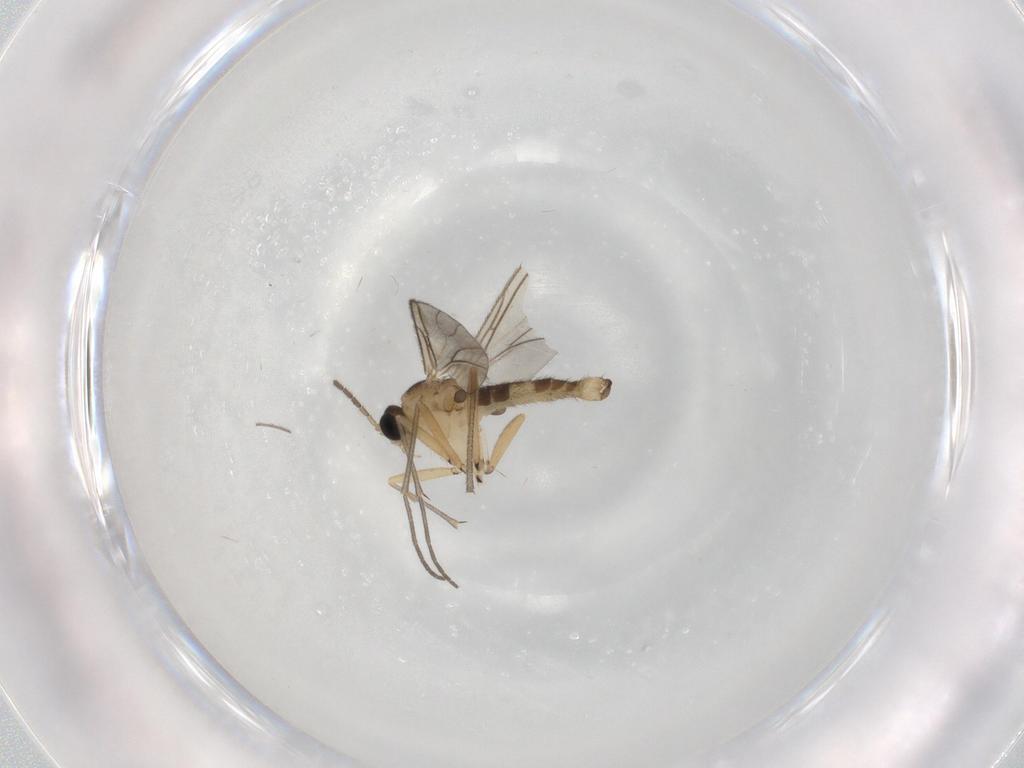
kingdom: Animalia
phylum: Arthropoda
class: Insecta
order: Diptera
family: Sciaridae
